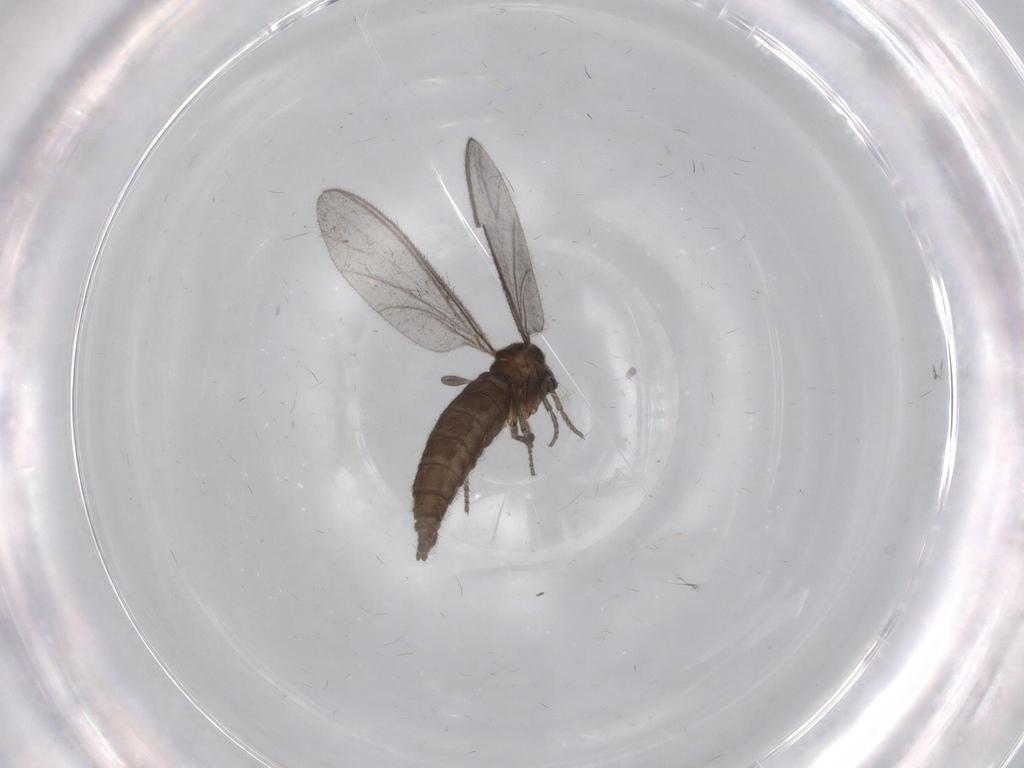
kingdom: Animalia
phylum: Arthropoda
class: Insecta
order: Diptera
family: Sciaridae
